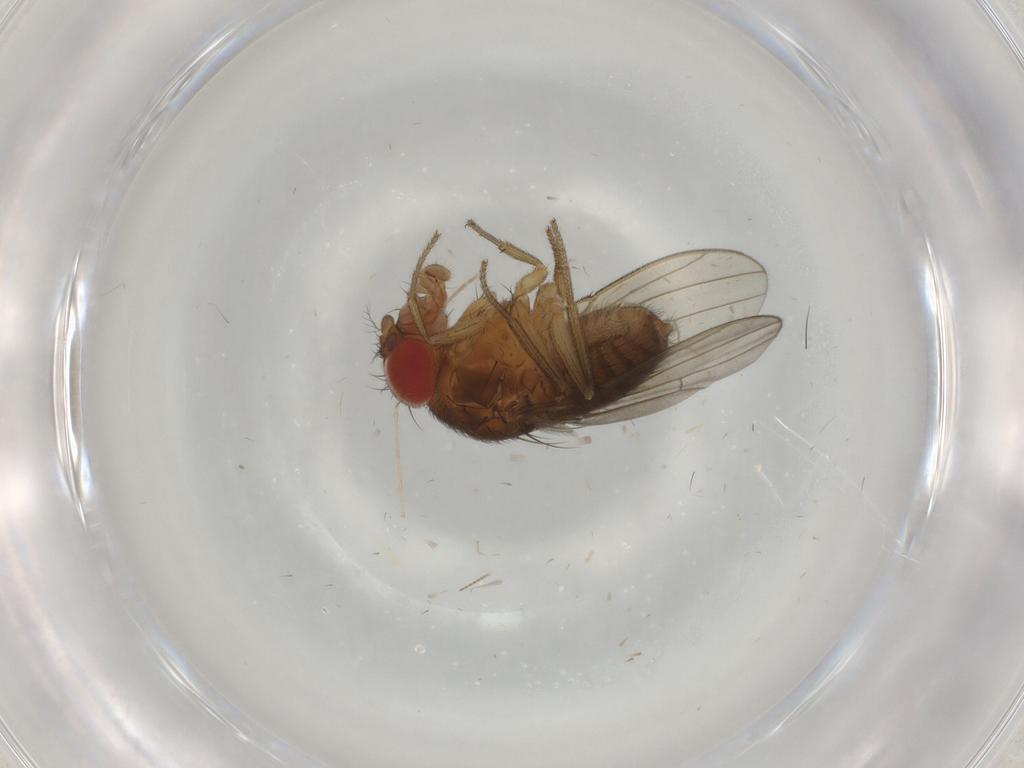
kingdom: Animalia
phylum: Arthropoda
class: Insecta
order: Diptera
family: Drosophilidae
